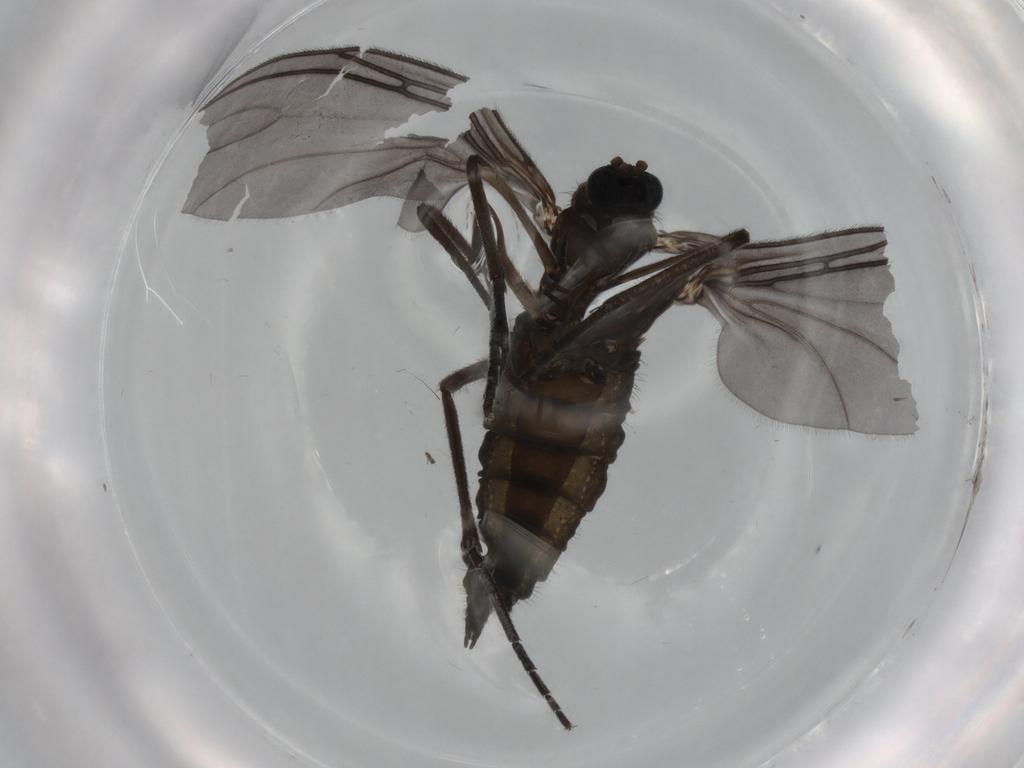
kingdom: Animalia
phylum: Arthropoda
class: Insecta
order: Diptera
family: Sciaridae
